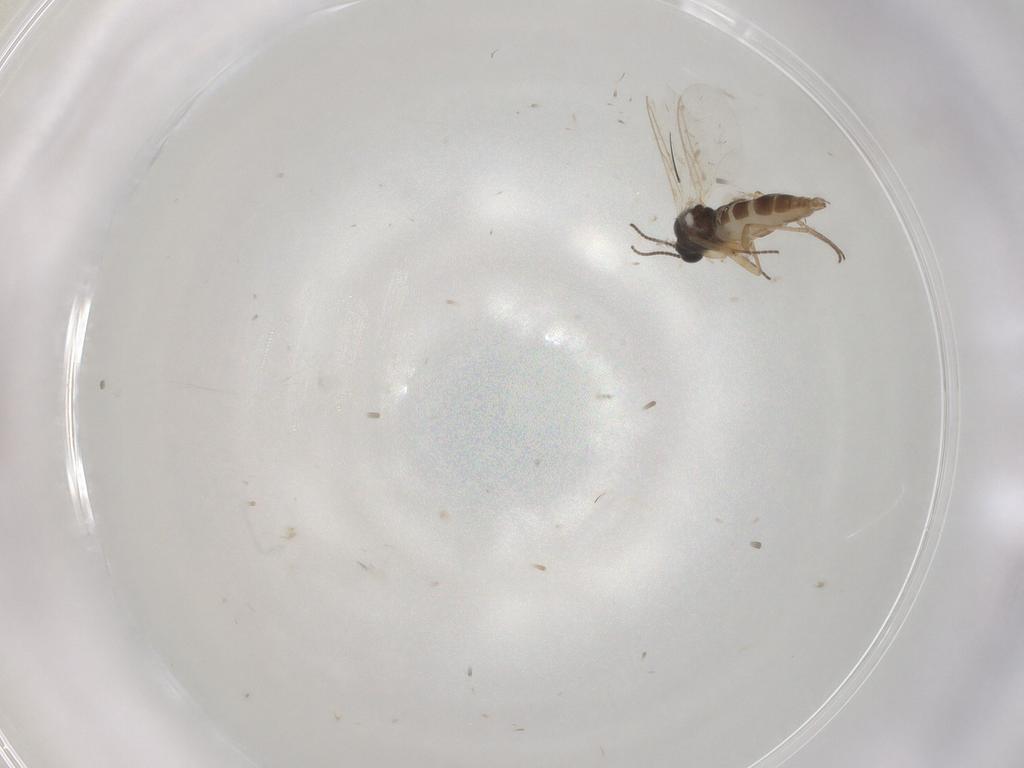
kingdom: Animalia
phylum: Arthropoda
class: Insecta
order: Diptera
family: Sciaridae
